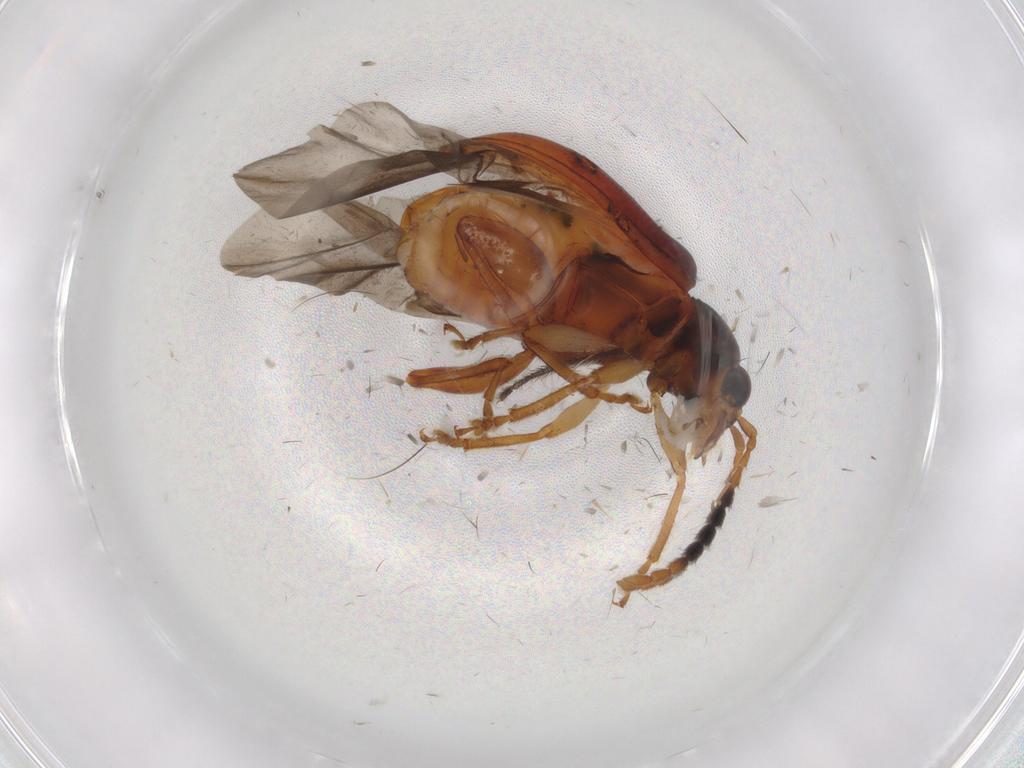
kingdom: Animalia
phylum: Arthropoda
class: Insecta
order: Coleoptera
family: Chrysomelidae
